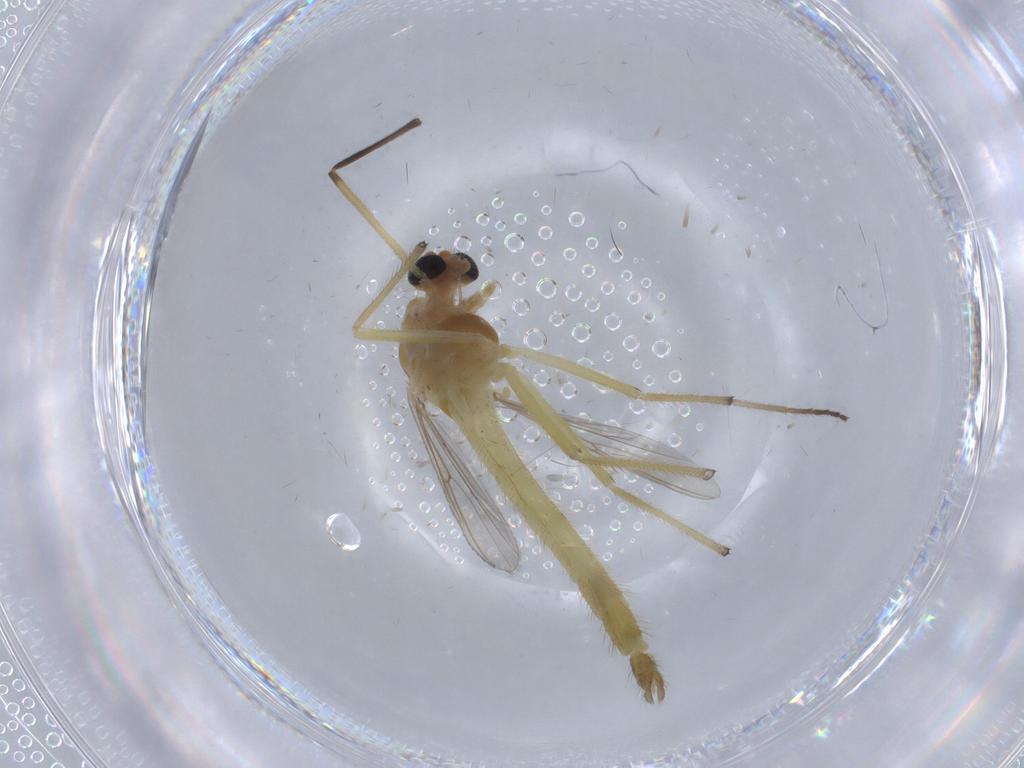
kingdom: Animalia
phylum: Arthropoda
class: Insecta
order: Diptera
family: Chironomidae
